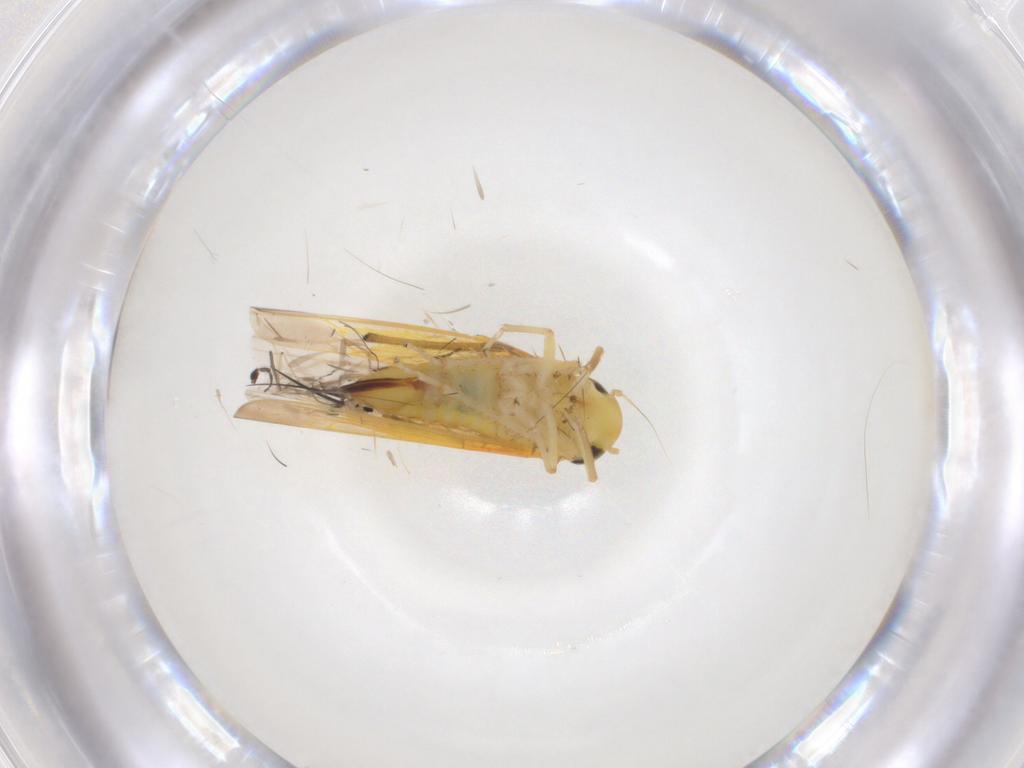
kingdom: Animalia
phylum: Arthropoda
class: Insecta
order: Hemiptera
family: Cicadellidae
